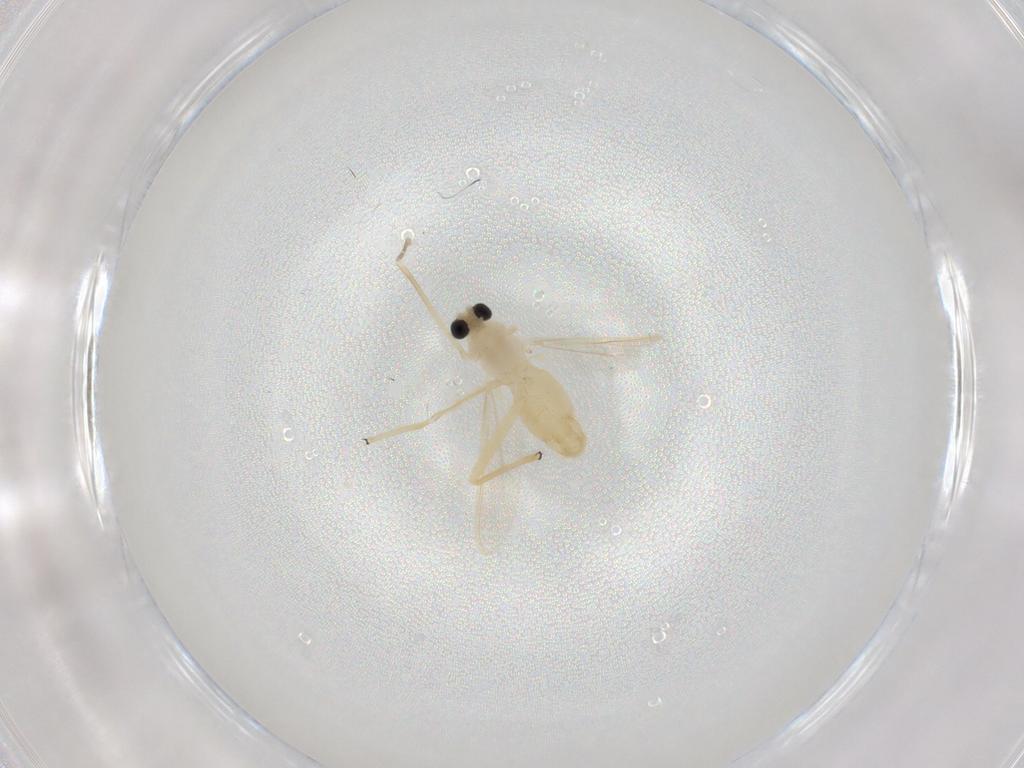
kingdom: Animalia
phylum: Arthropoda
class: Insecta
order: Diptera
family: Chironomidae
